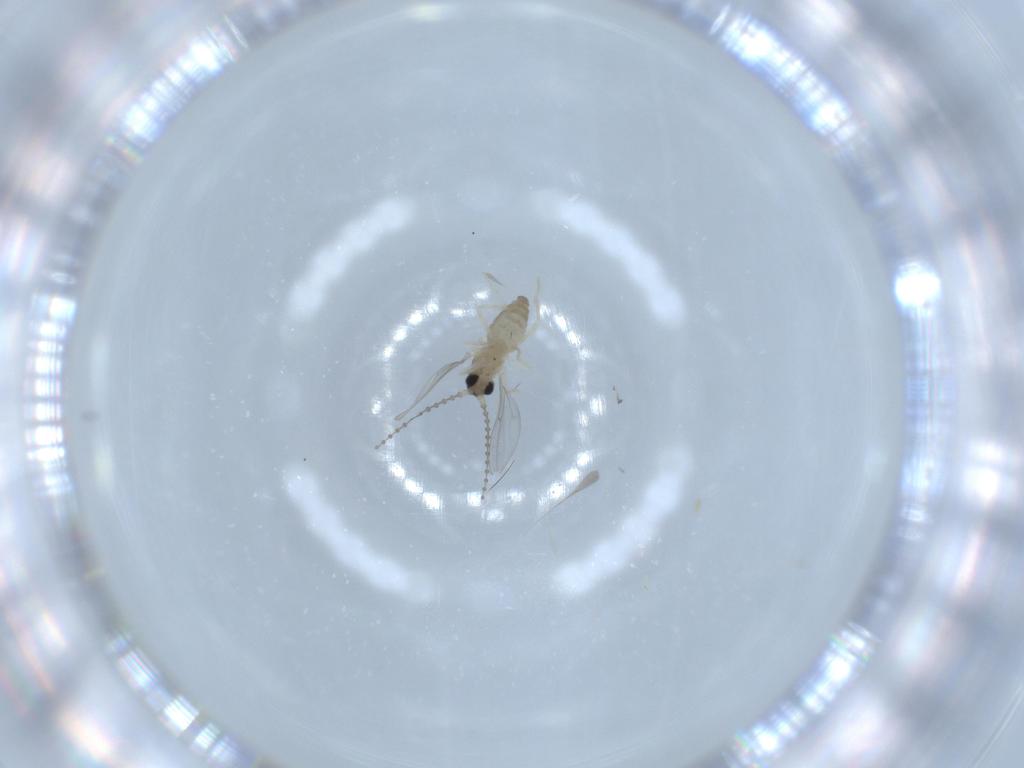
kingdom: Animalia
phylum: Arthropoda
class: Insecta
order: Diptera
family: Cecidomyiidae
